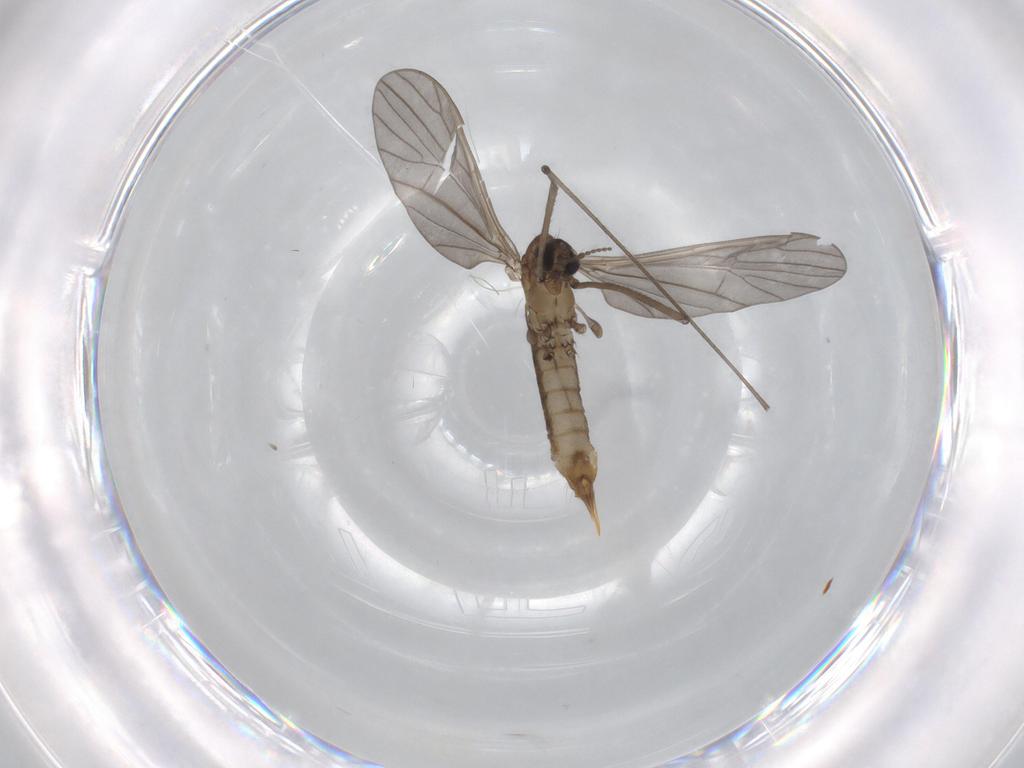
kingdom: Animalia
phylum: Arthropoda
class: Insecta
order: Diptera
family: Limoniidae
